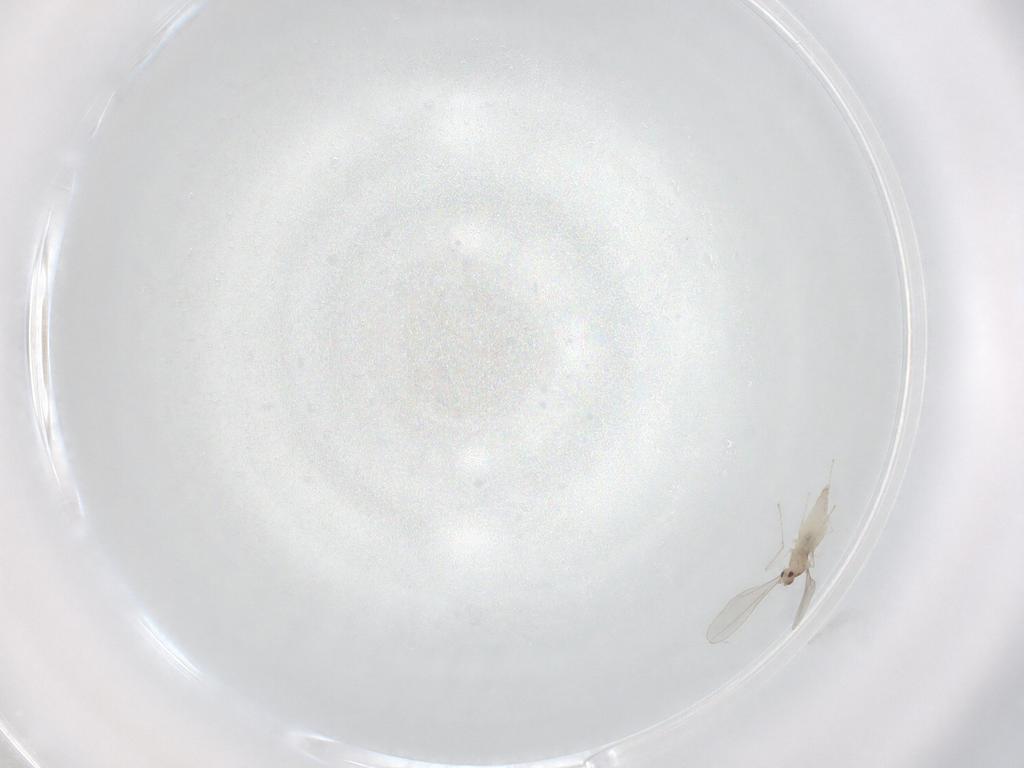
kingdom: Animalia
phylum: Arthropoda
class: Insecta
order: Diptera
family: Cecidomyiidae
